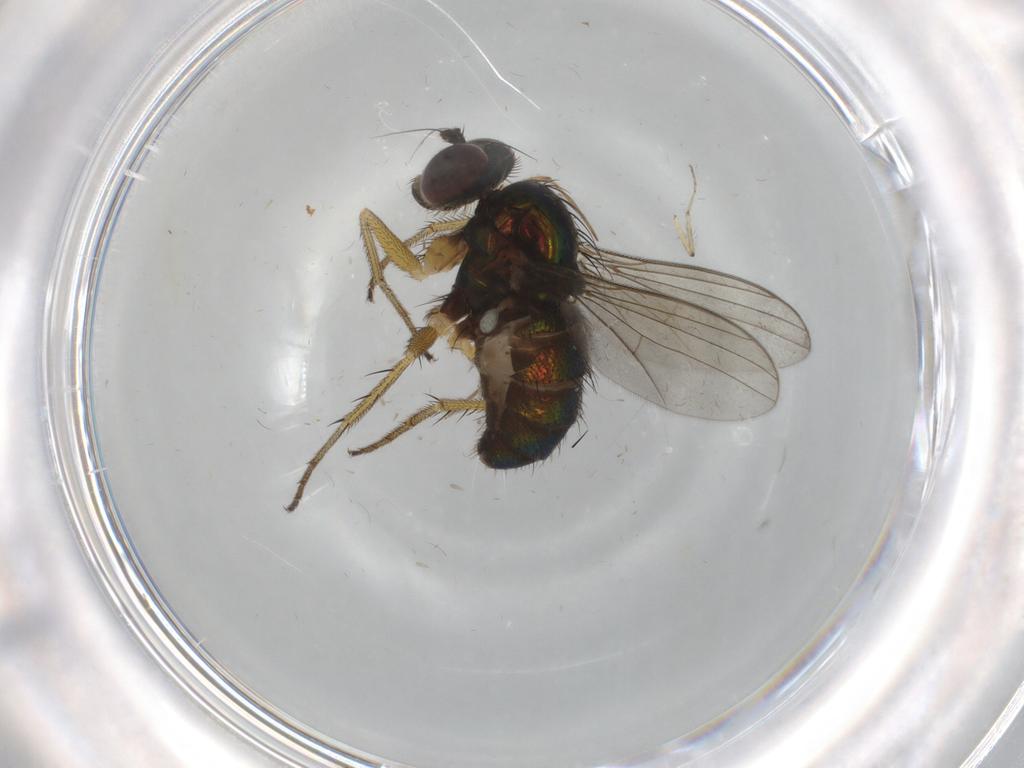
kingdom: Animalia
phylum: Arthropoda
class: Insecta
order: Diptera
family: Dolichopodidae
